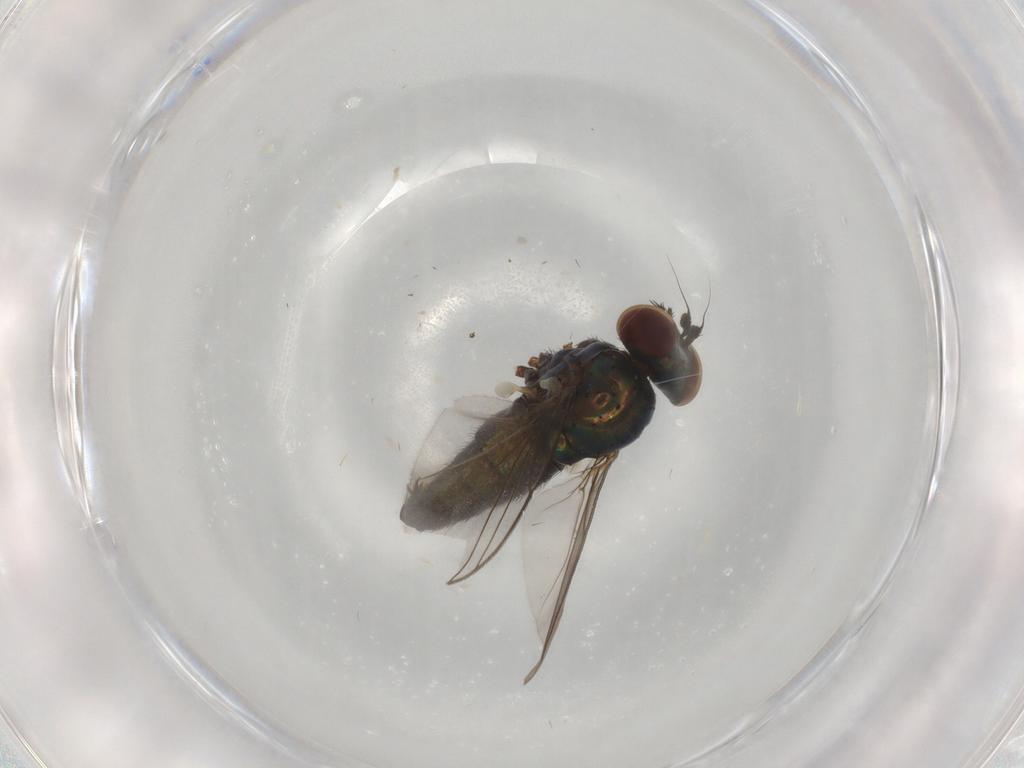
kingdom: Animalia
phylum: Arthropoda
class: Insecta
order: Diptera
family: Dolichopodidae
